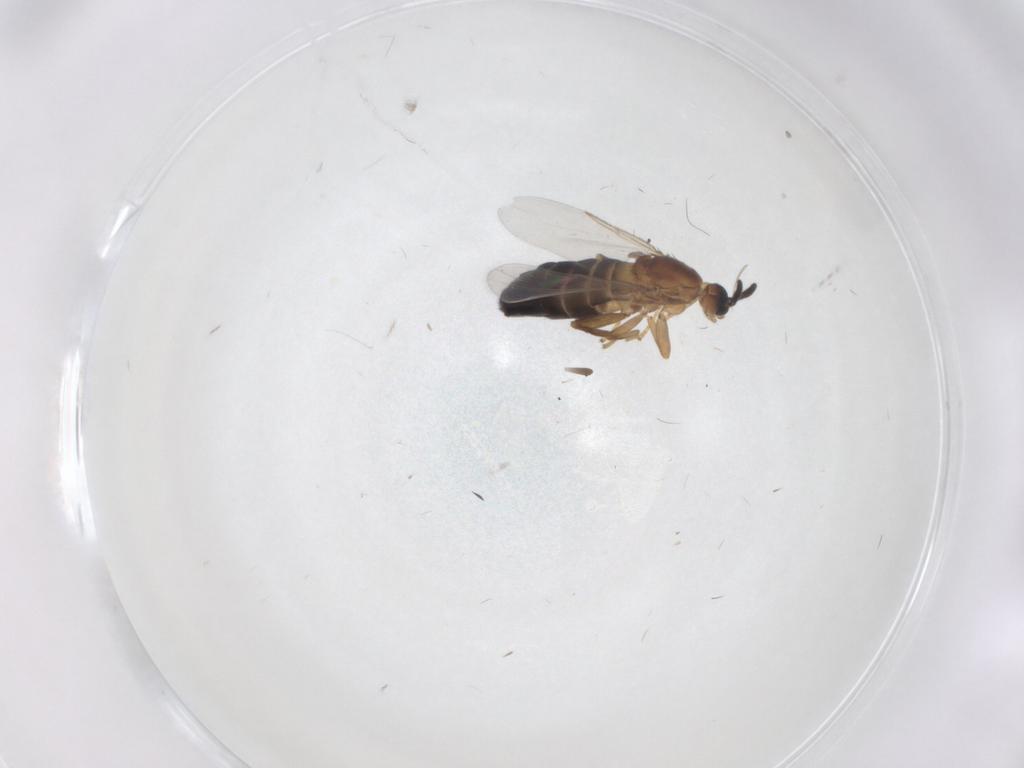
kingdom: Animalia
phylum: Arthropoda
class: Insecta
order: Diptera
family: Scatopsidae
